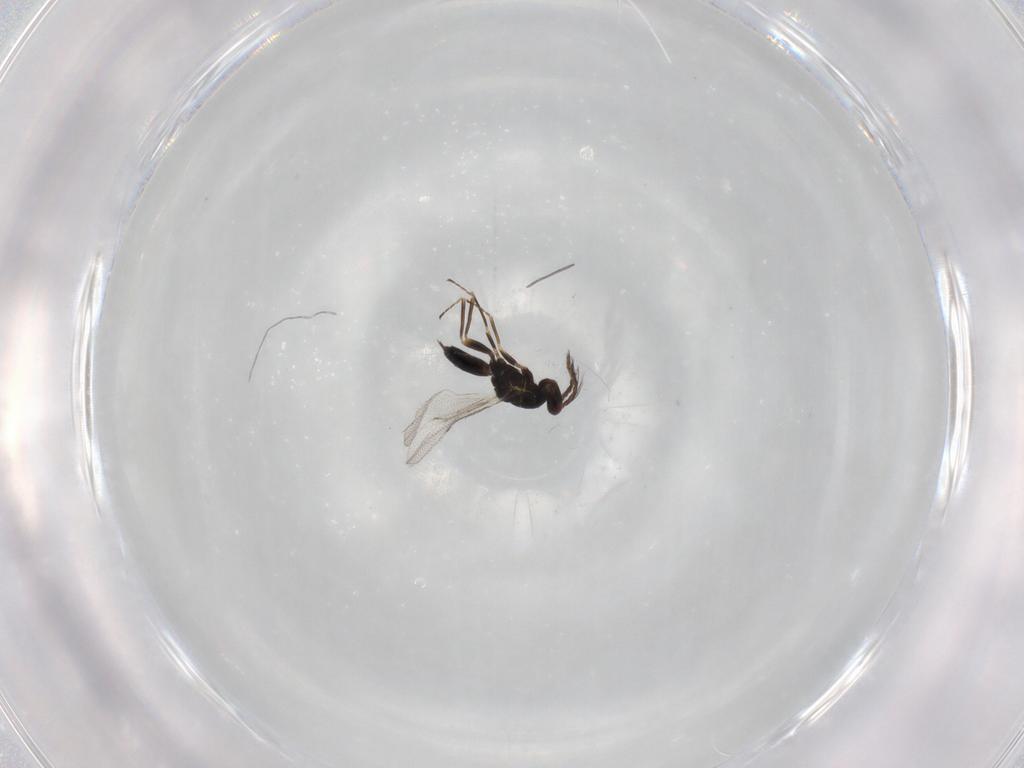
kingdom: Animalia
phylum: Arthropoda
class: Insecta
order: Hymenoptera
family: Eulophidae
